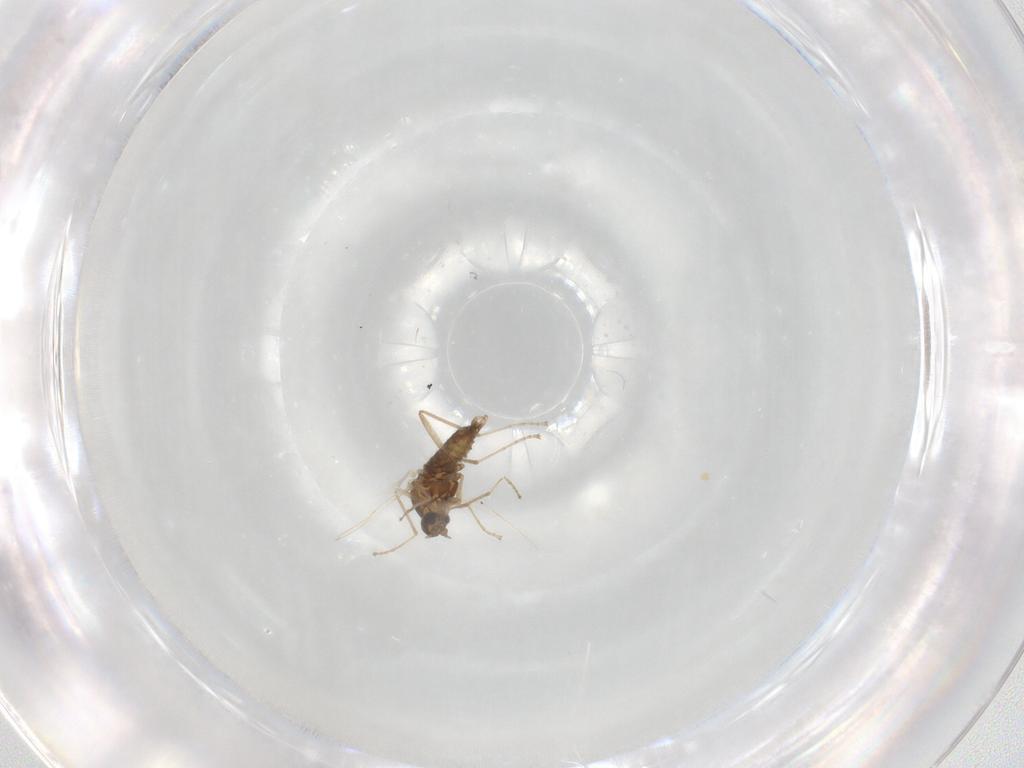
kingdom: Animalia
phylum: Arthropoda
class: Insecta
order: Diptera
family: Cecidomyiidae
